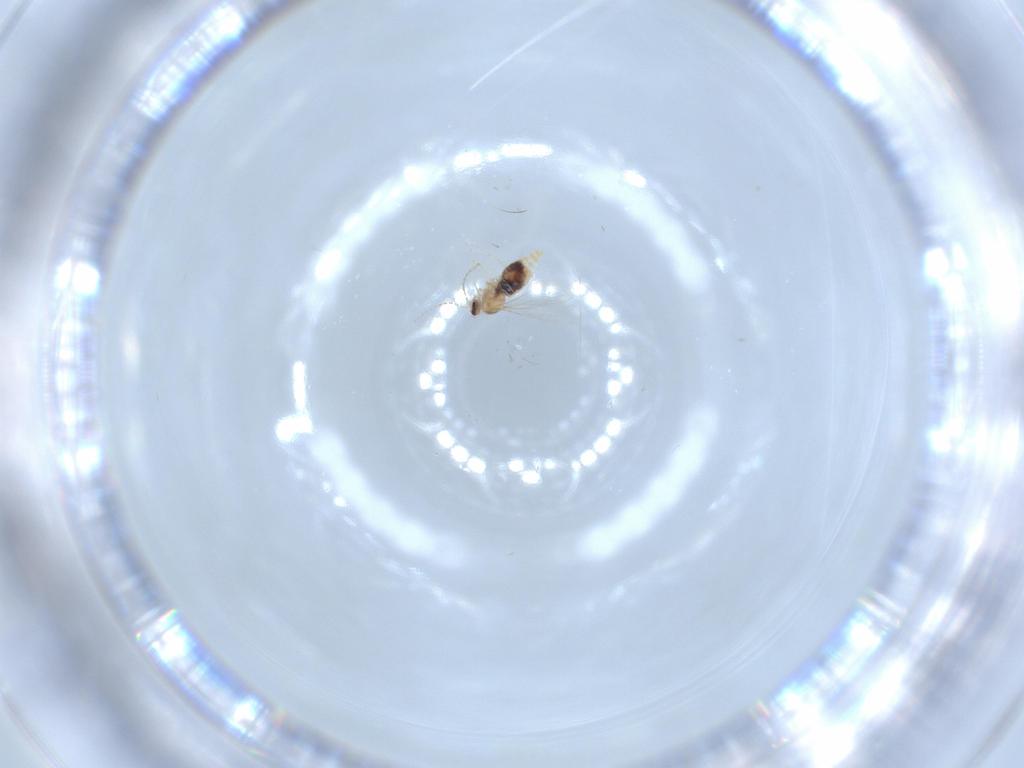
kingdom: Animalia
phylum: Arthropoda
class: Insecta
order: Diptera
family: Cecidomyiidae
